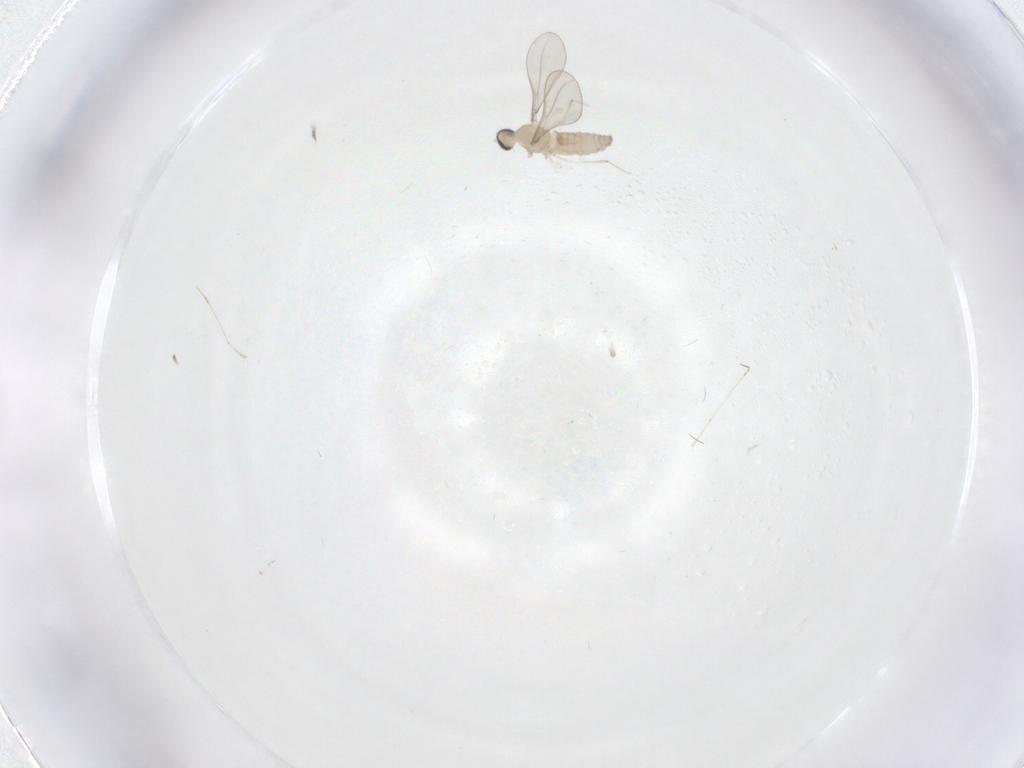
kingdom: Animalia
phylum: Arthropoda
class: Insecta
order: Diptera
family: Cecidomyiidae
